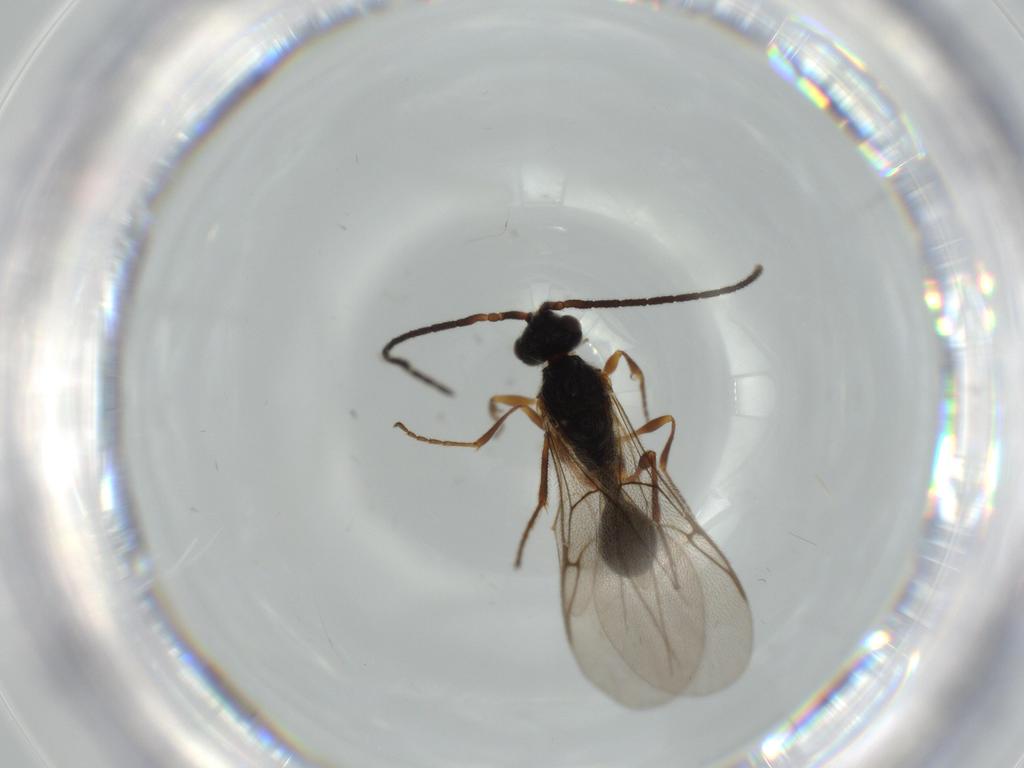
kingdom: Animalia
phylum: Arthropoda
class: Insecta
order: Hymenoptera
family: Diapriidae
